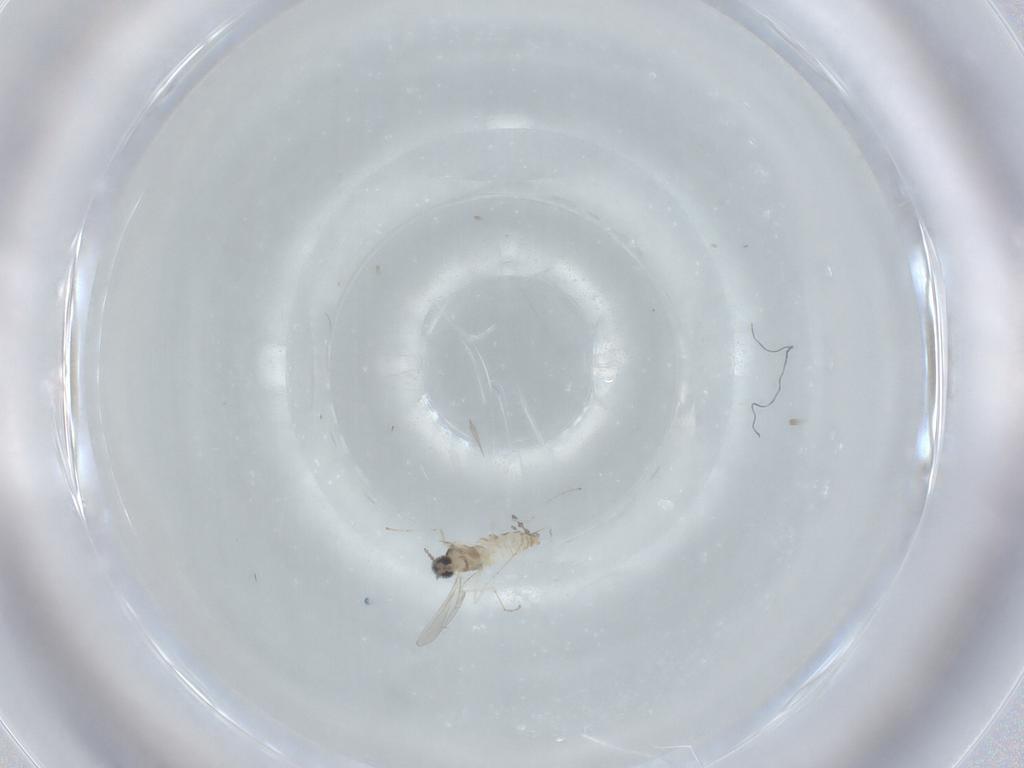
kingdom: Animalia
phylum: Arthropoda
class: Insecta
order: Diptera
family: Cecidomyiidae
